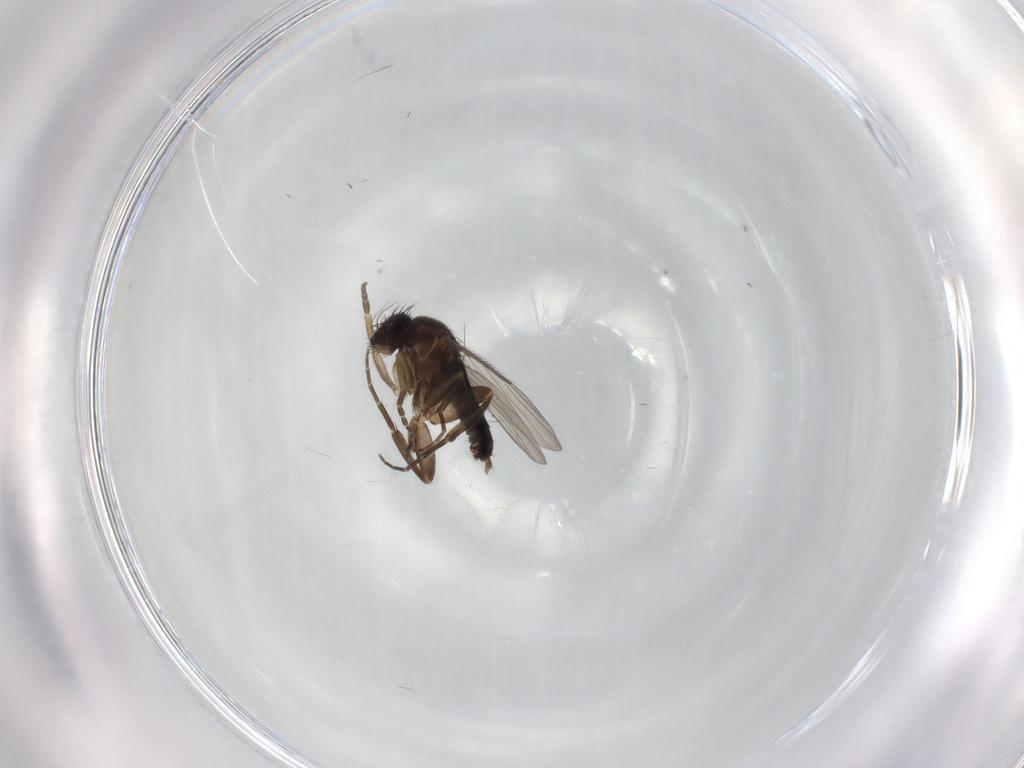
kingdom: Animalia
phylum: Arthropoda
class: Insecta
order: Diptera
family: Phoridae
